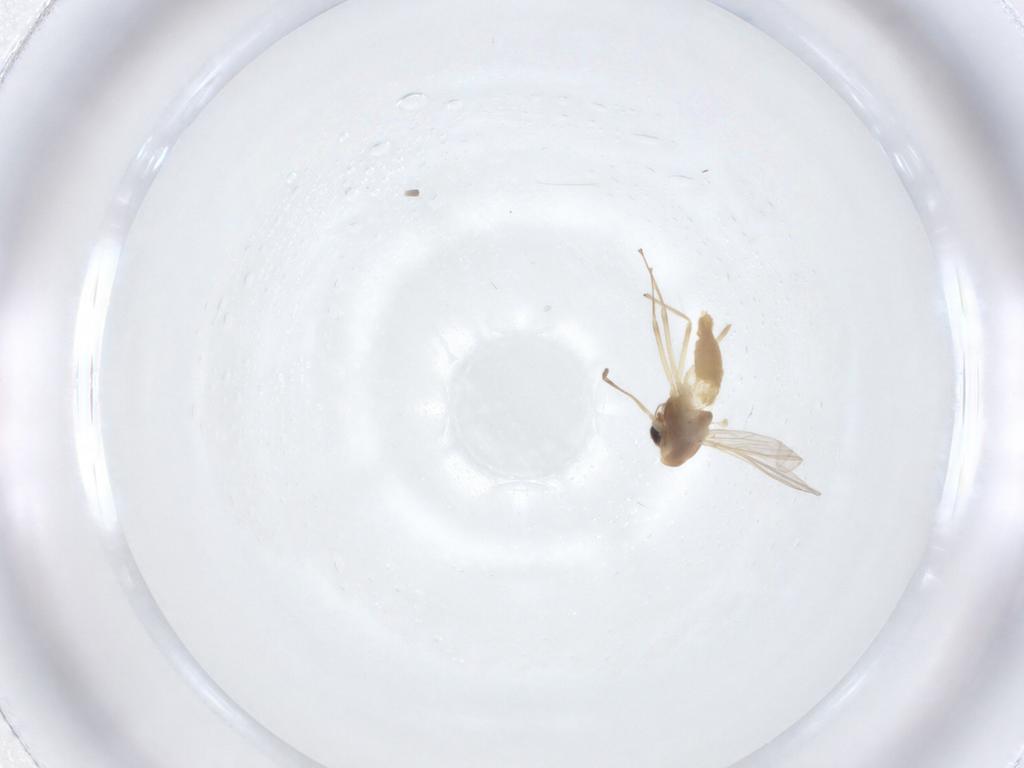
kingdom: Animalia
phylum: Arthropoda
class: Insecta
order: Diptera
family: Chironomidae
